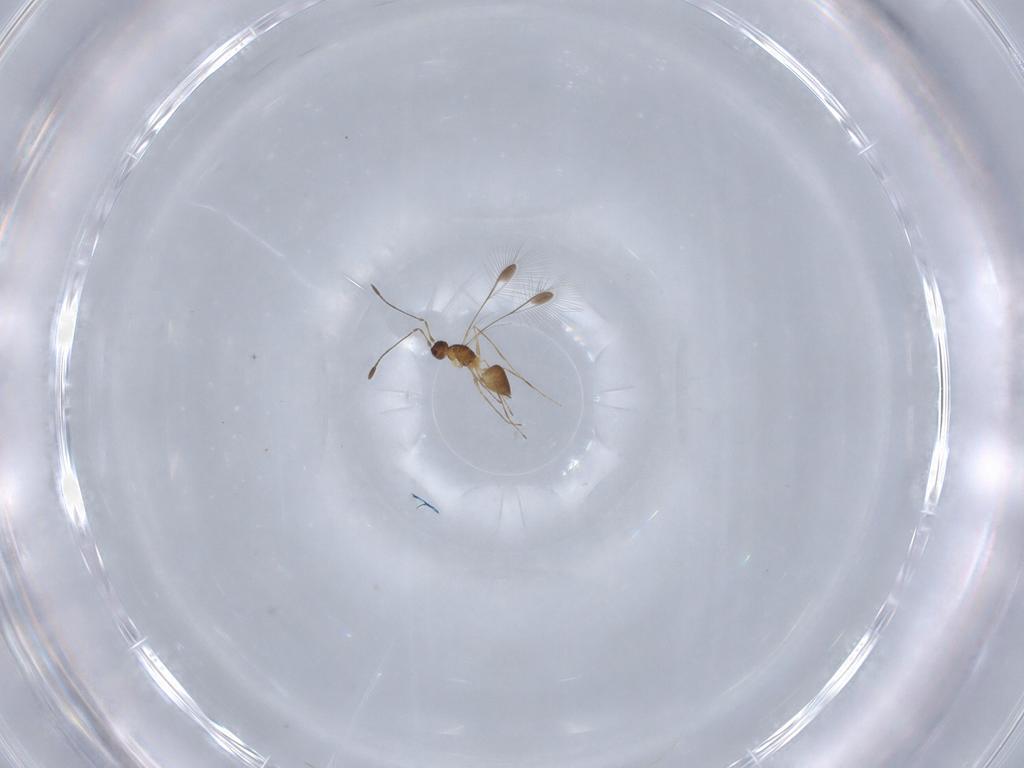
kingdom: Animalia
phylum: Arthropoda
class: Insecta
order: Hymenoptera
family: Mymaridae
